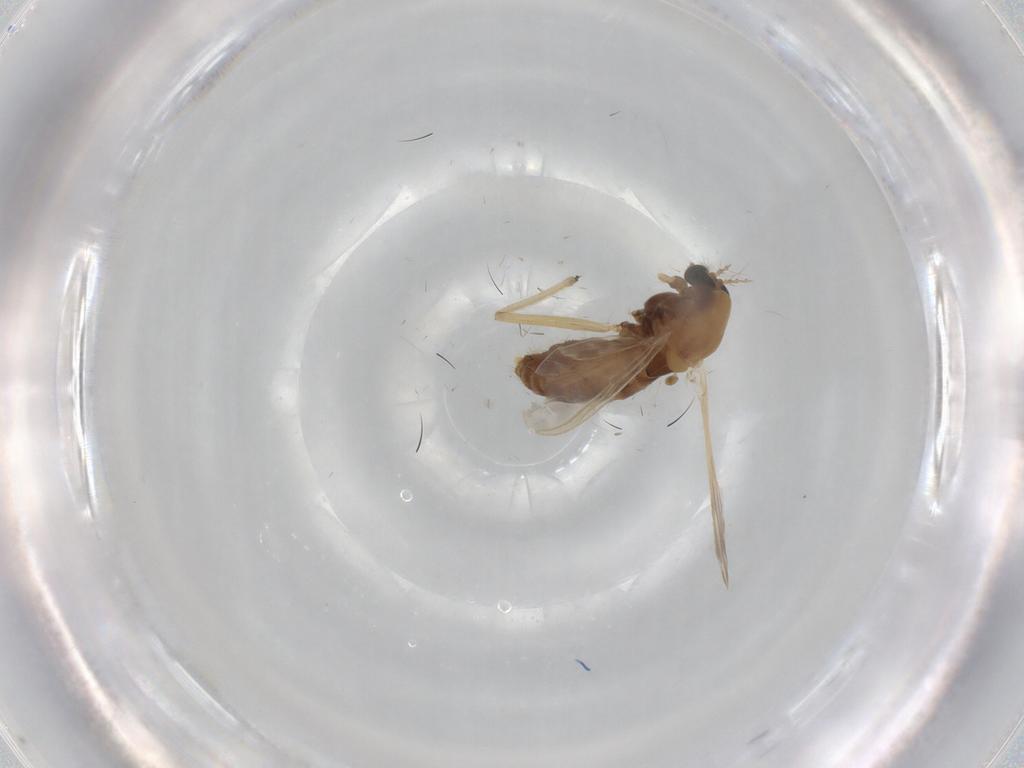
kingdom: Animalia
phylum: Arthropoda
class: Insecta
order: Diptera
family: Chironomidae
